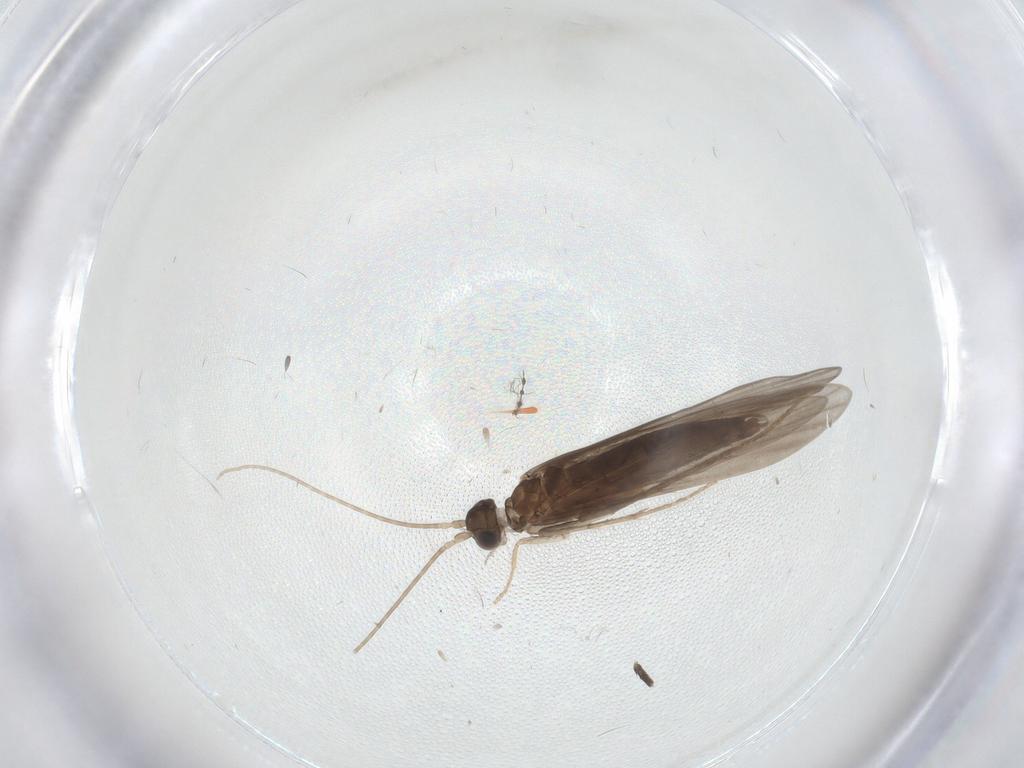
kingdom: Animalia
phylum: Arthropoda
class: Insecta
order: Trichoptera
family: Xiphocentronidae
